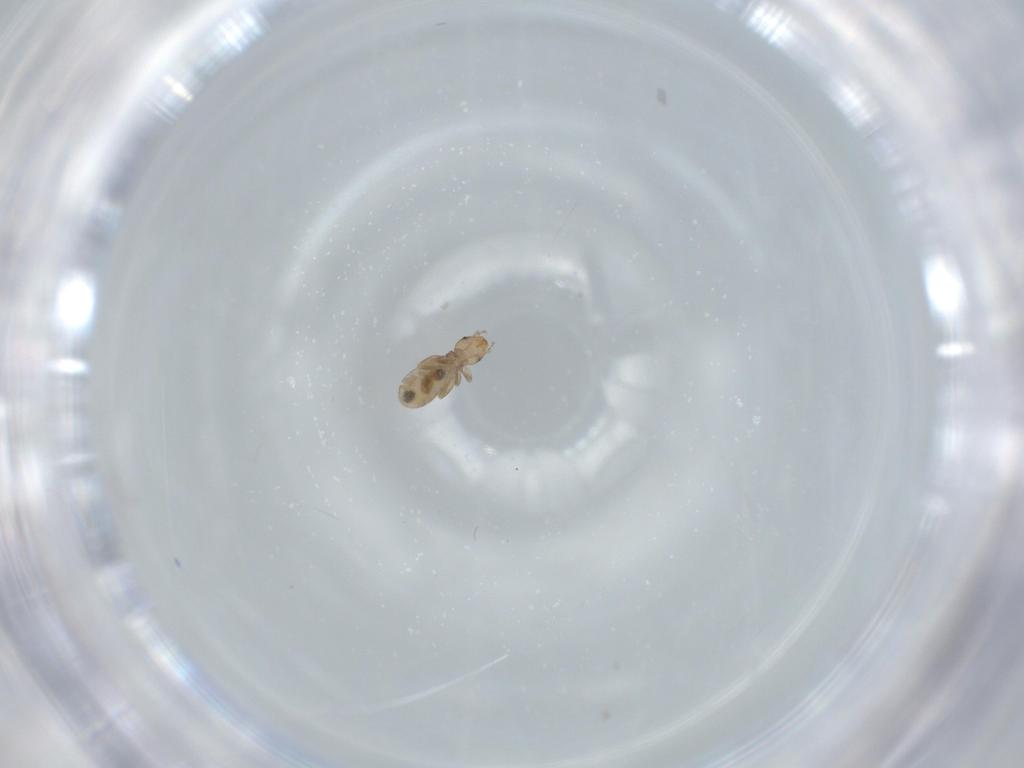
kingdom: Animalia
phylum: Arthropoda
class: Insecta
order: Psocodea
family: Liposcelididae
